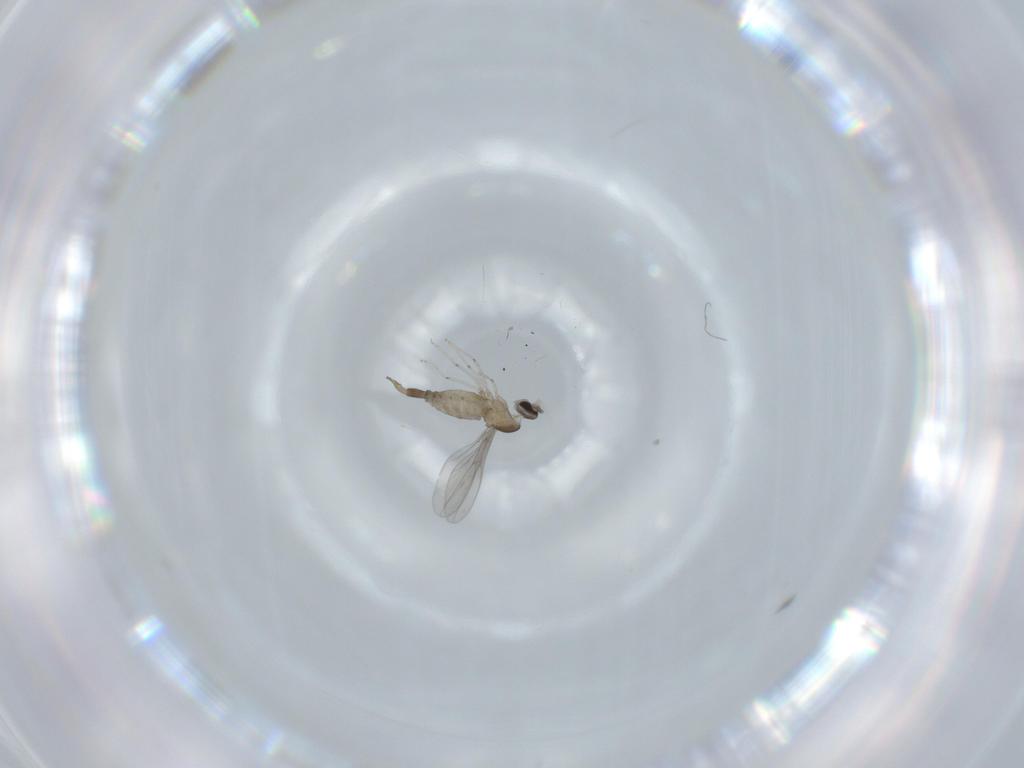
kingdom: Animalia
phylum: Arthropoda
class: Insecta
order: Diptera
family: Cecidomyiidae
